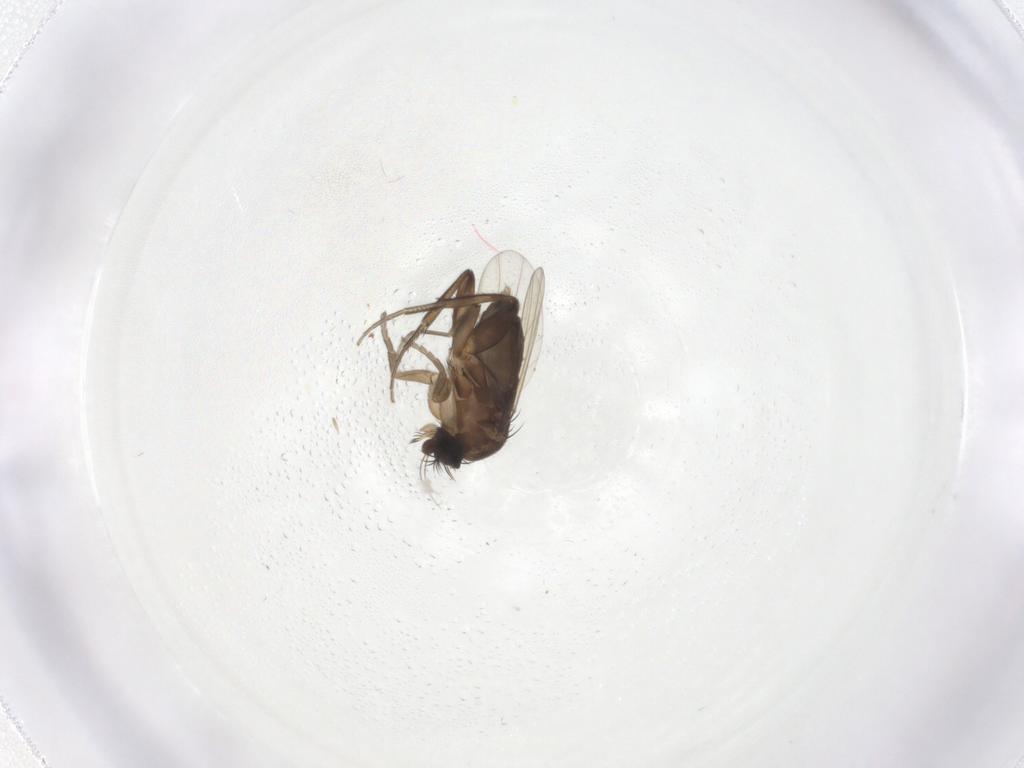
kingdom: Animalia
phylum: Arthropoda
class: Insecta
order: Diptera
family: Phoridae
